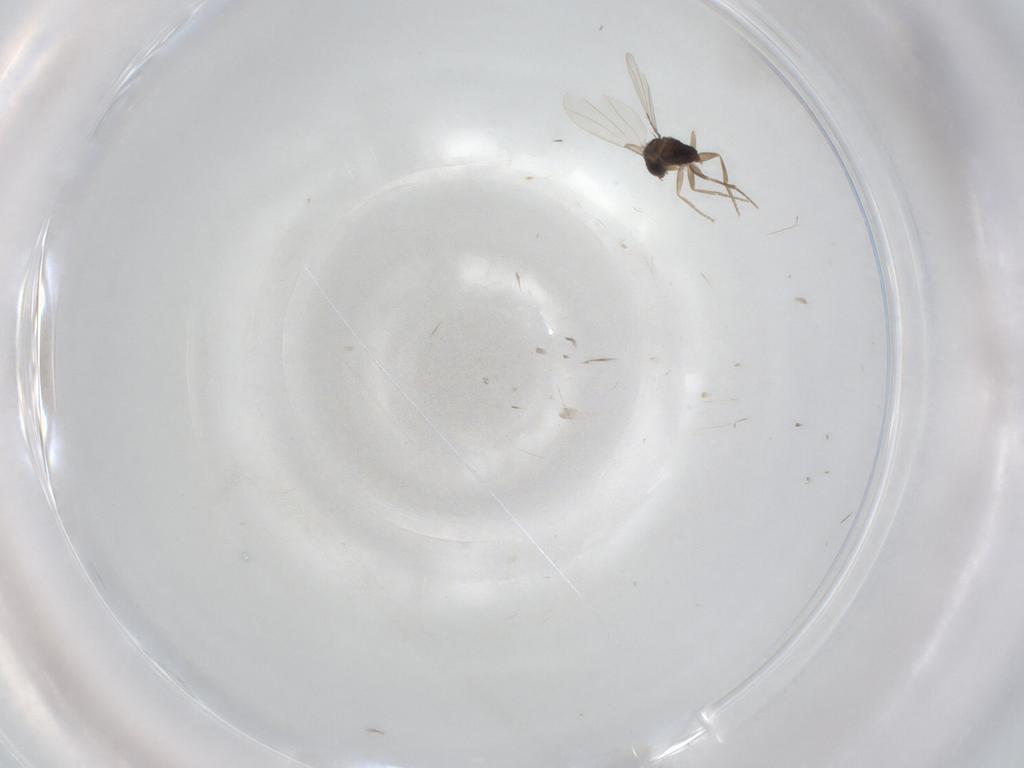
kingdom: Animalia
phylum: Arthropoda
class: Insecta
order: Diptera
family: Phoridae
